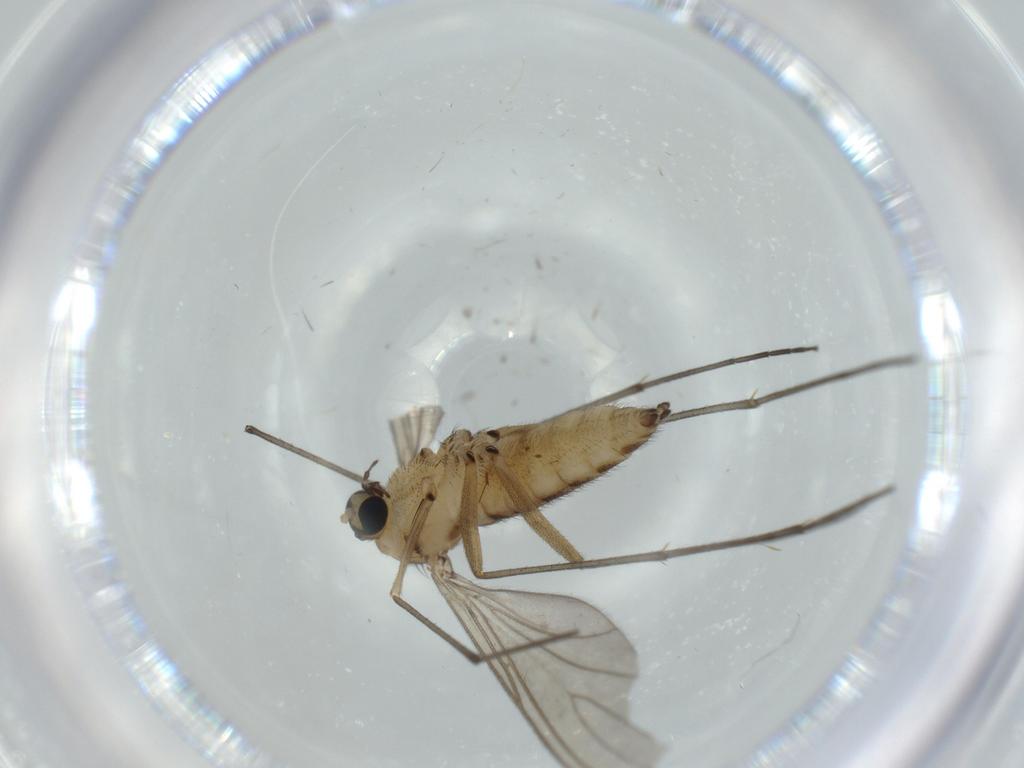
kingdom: Animalia
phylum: Arthropoda
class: Insecta
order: Diptera
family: Sciaridae
